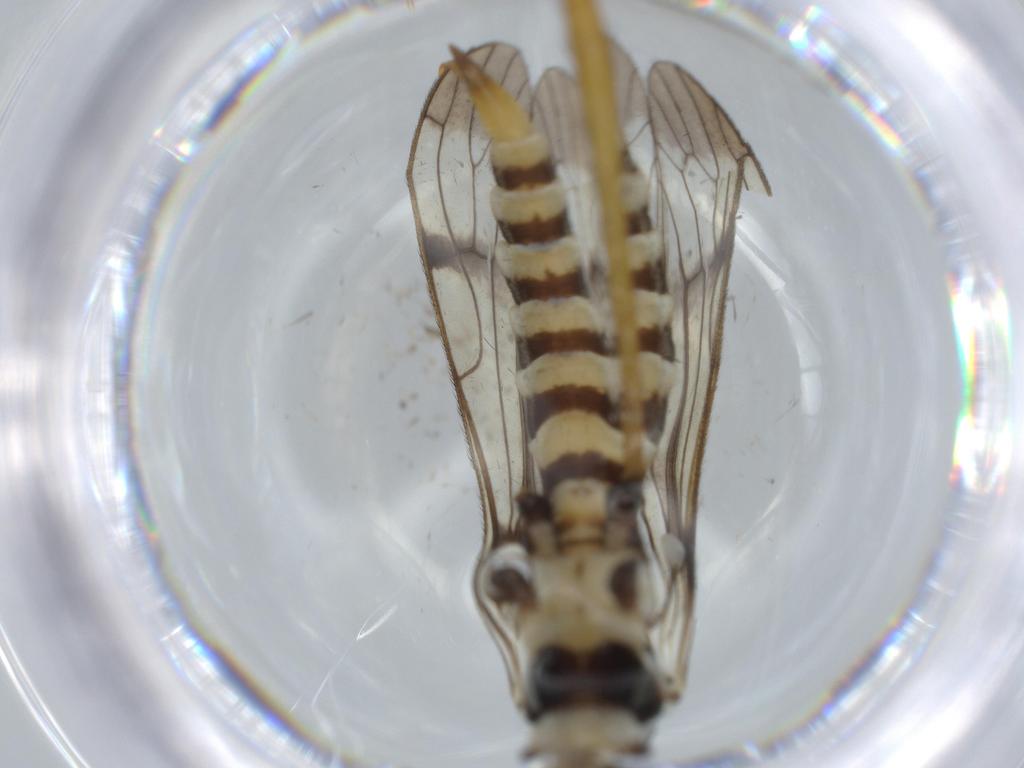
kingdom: Animalia
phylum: Arthropoda
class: Insecta
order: Diptera
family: Limoniidae
